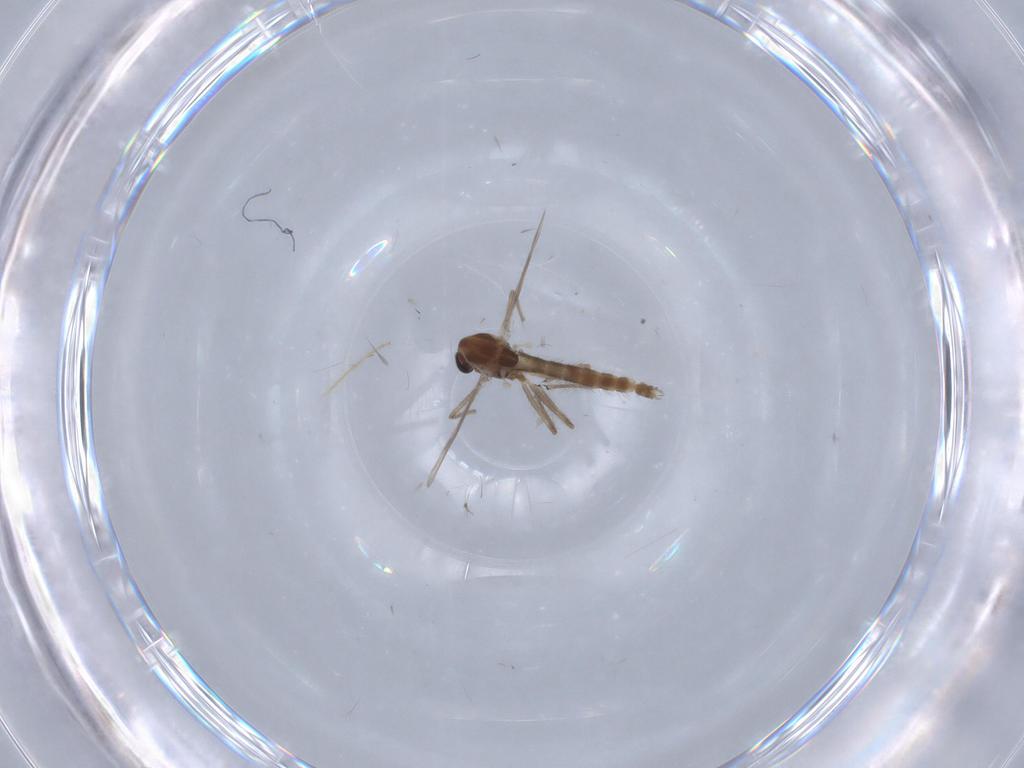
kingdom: Animalia
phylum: Arthropoda
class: Insecta
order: Diptera
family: Chironomidae
